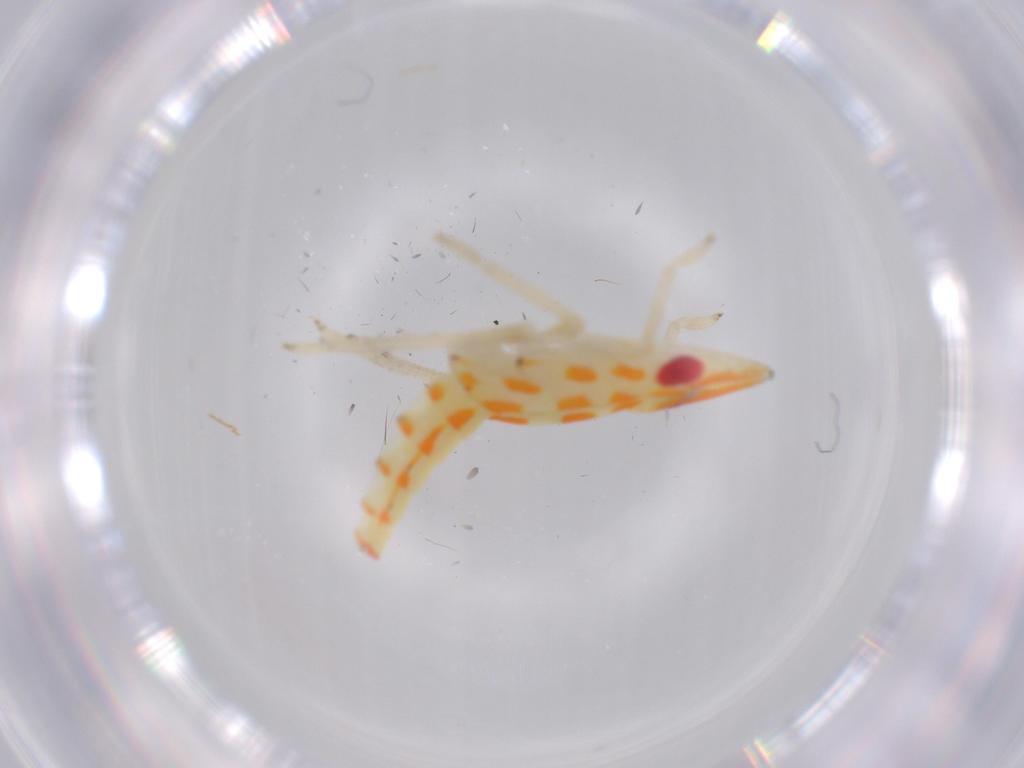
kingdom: Animalia
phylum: Arthropoda
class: Insecta
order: Hemiptera
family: Tropiduchidae
